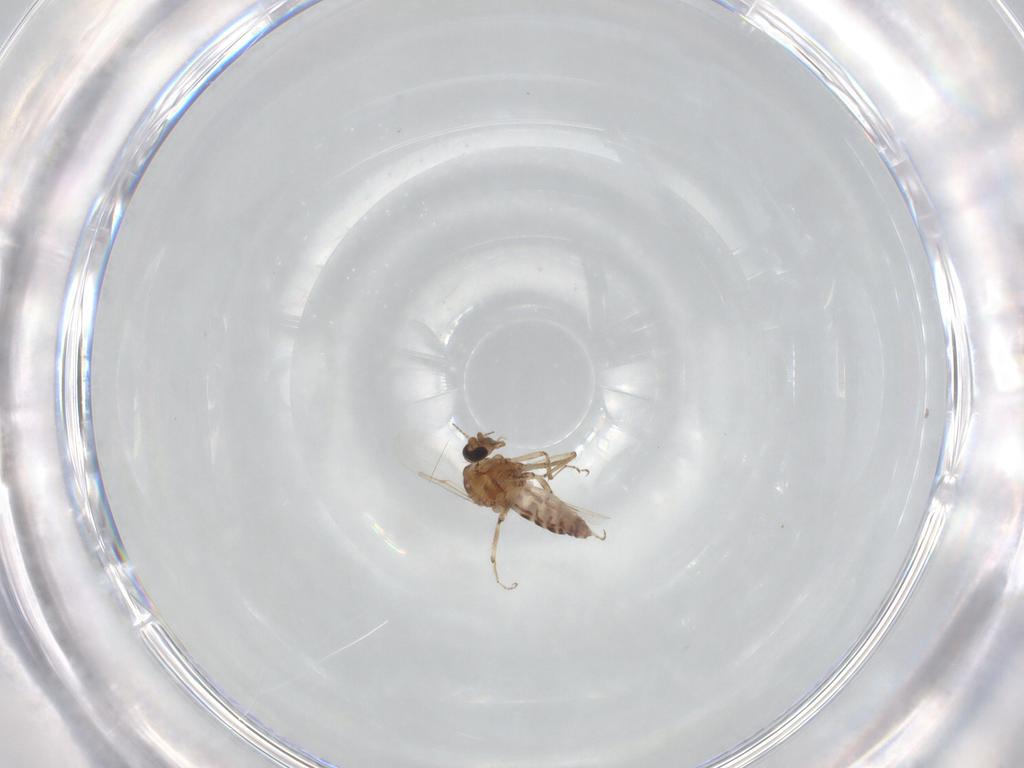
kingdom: Animalia
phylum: Arthropoda
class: Insecta
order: Diptera
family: Ceratopogonidae
